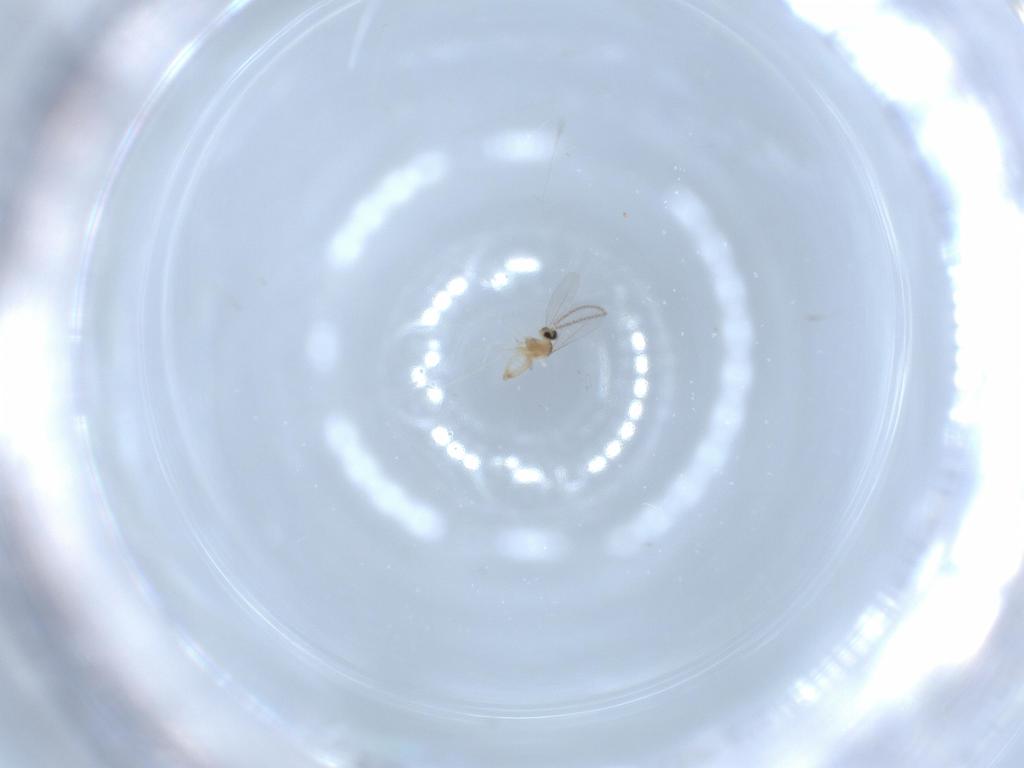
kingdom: Animalia
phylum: Arthropoda
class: Insecta
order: Diptera
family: Cecidomyiidae
